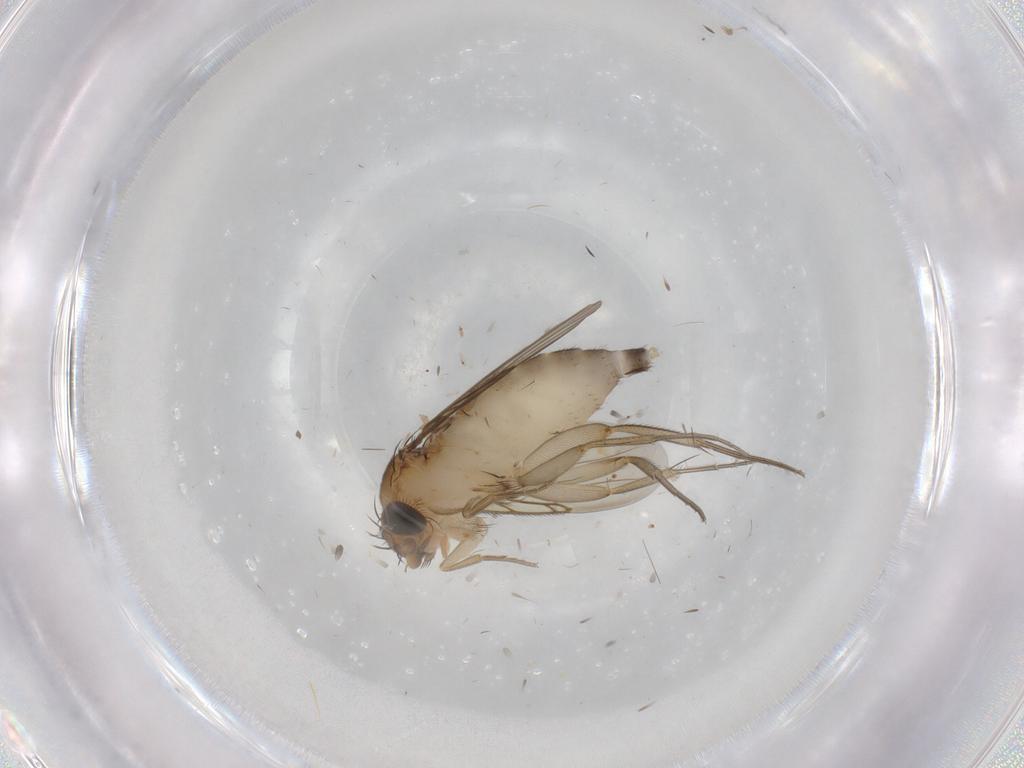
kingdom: Animalia
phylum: Arthropoda
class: Insecta
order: Diptera
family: Phoridae
